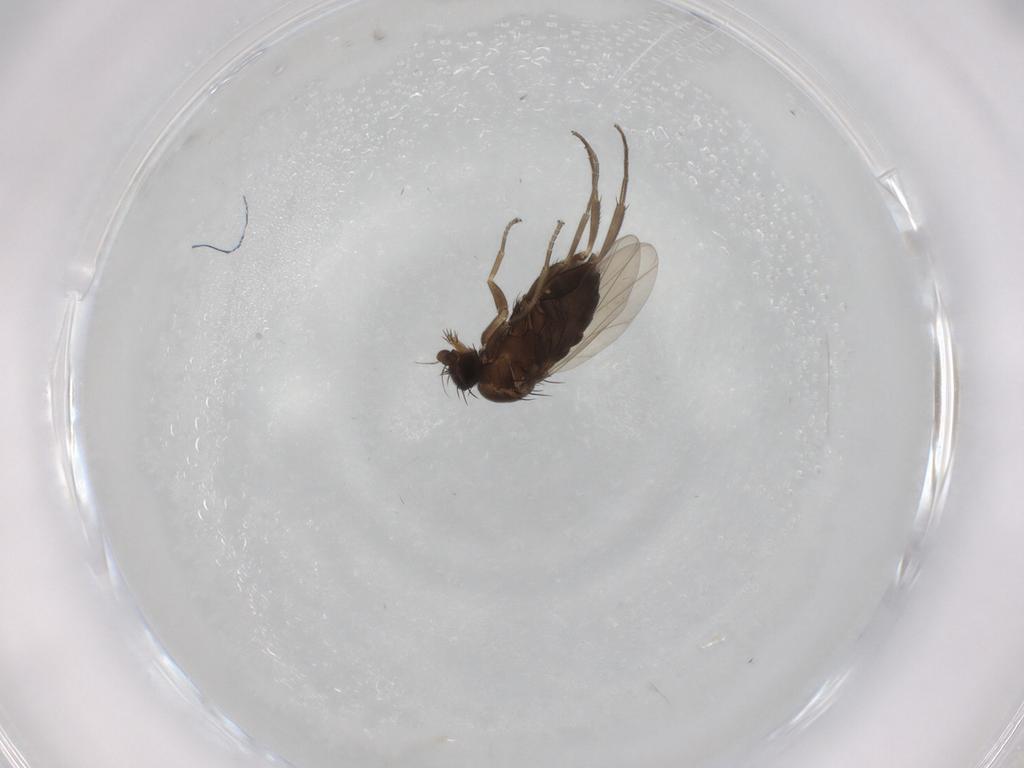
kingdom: Animalia
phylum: Arthropoda
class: Insecta
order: Diptera
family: Phoridae
